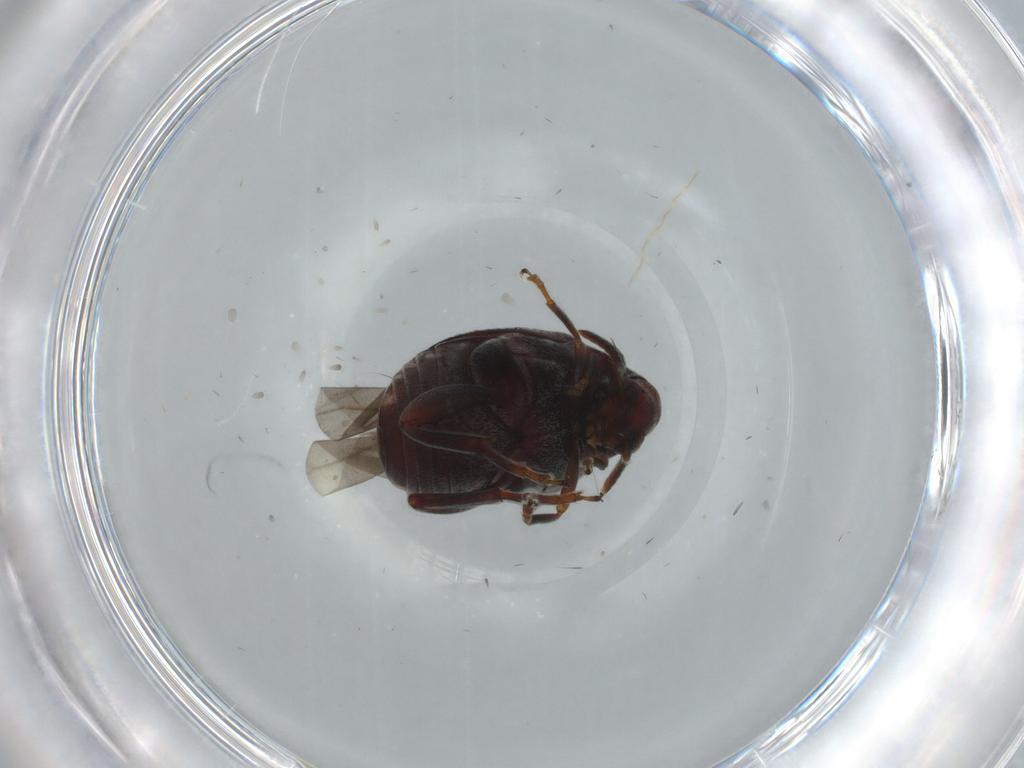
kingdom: Animalia
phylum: Arthropoda
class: Insecta
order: Coleoptera
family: Chrysomelidae
